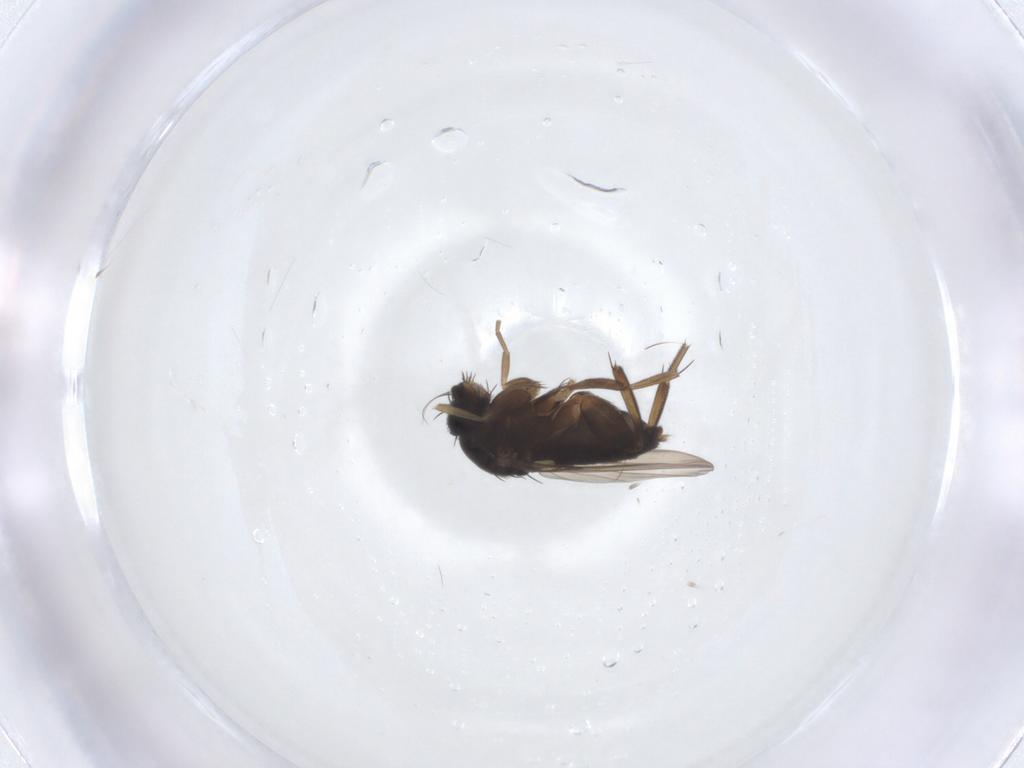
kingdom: Animalia
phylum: Arthropoda
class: Insecta
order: Diptera
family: Phoridae
